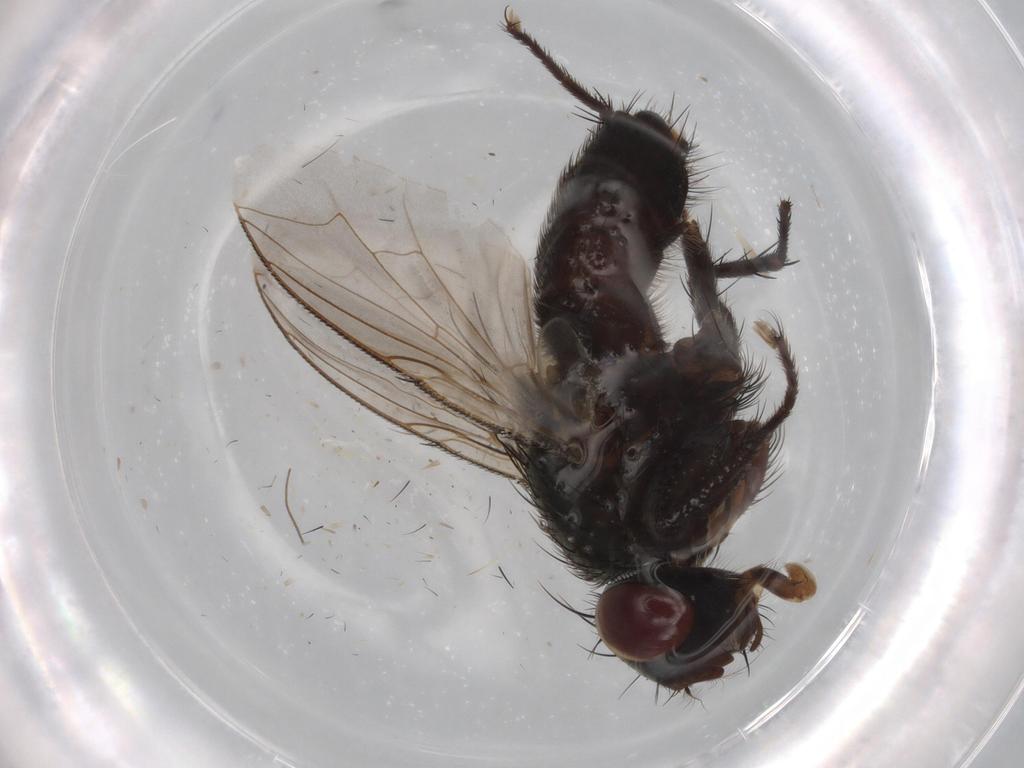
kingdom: Animalia
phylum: Arthropoda
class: Insecta
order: Diptera
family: Sarcophagidae
